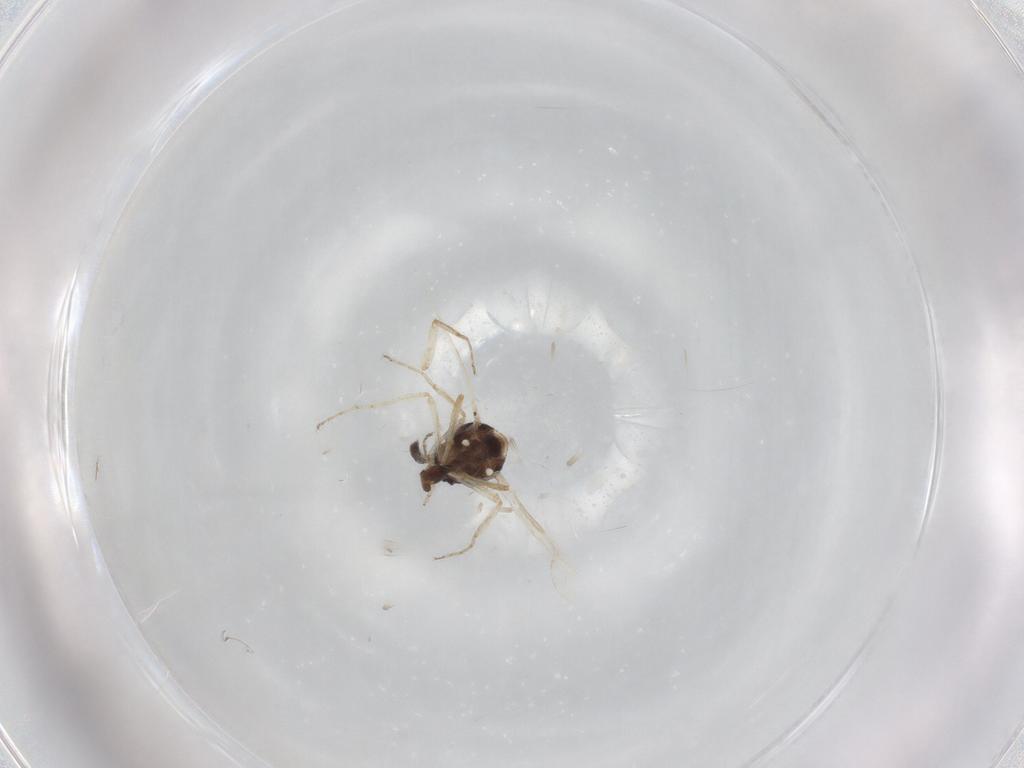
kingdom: Animalia
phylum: Arthropoda
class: Insecta
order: Diptera
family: Ceratopogonidae
